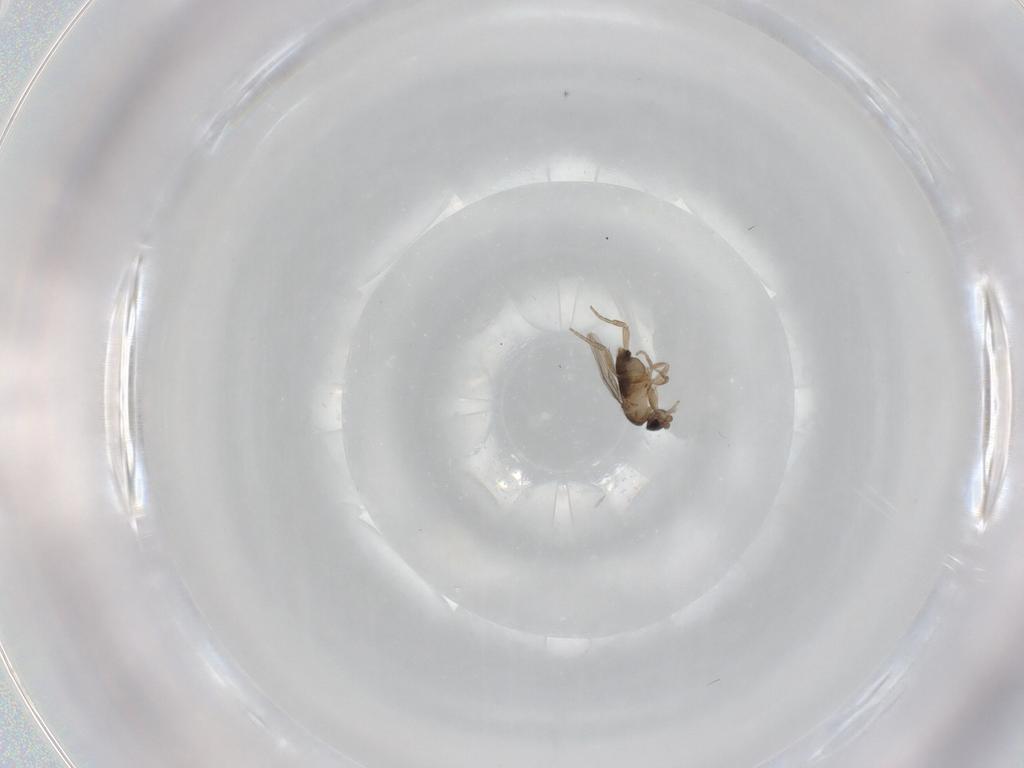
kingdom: Animalia
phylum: Arthropoda
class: Insecta
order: Diptera
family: Phoridae
